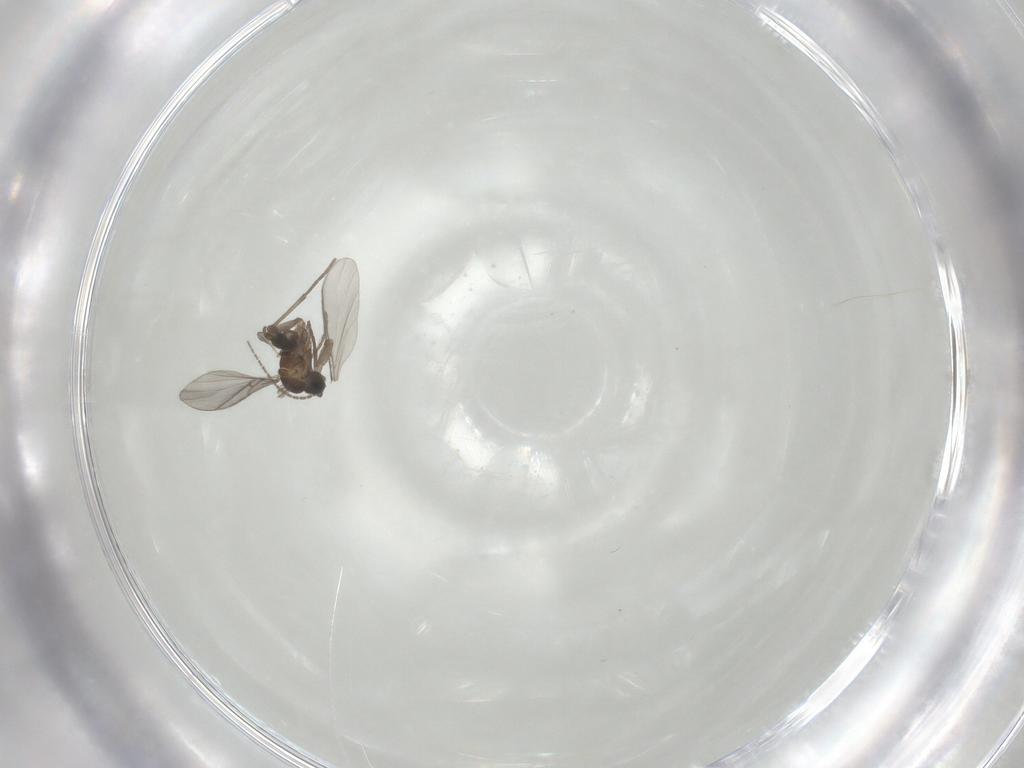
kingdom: Animalia
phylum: Arthropoda
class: Insecta
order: Diptera
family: Sciaridae
